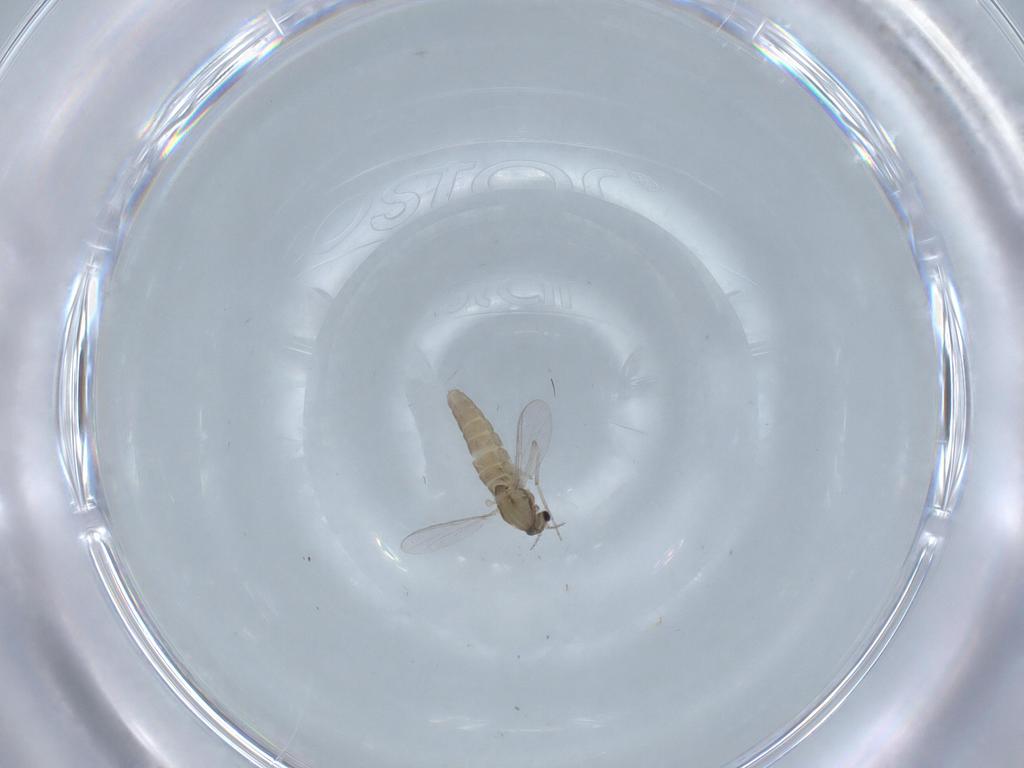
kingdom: Animalia
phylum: Arthropoda
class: Insecta
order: Diptera
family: Chironomidae
